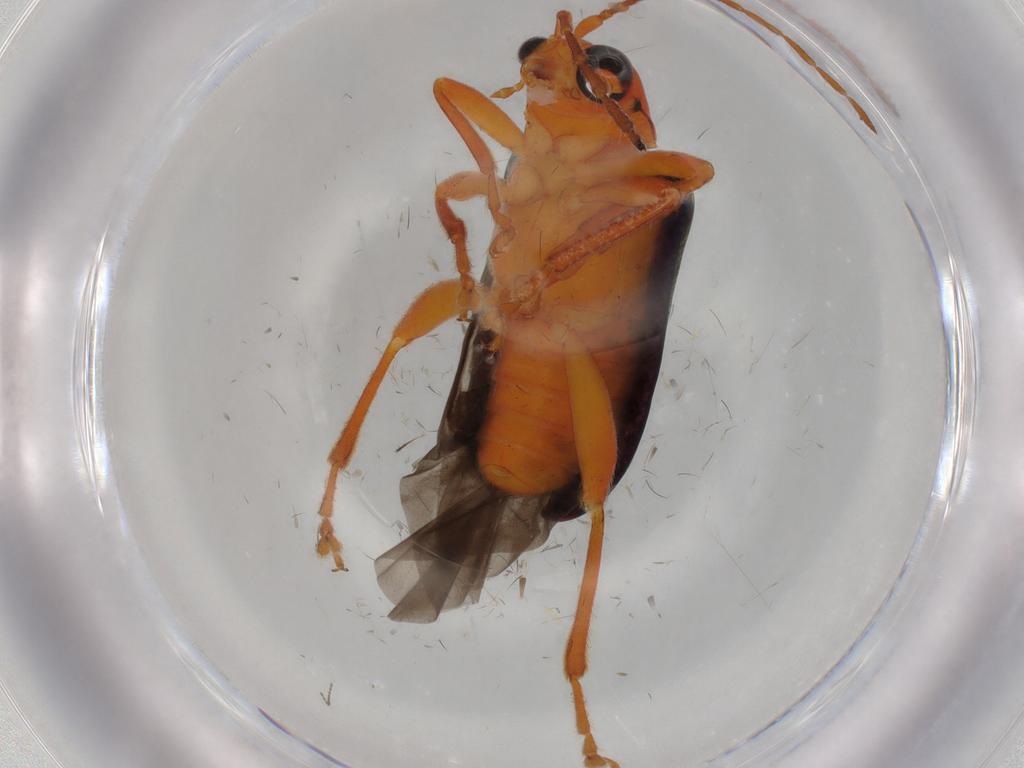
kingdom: Animalia
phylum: Arthropoda
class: Insecta
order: Coleoptera
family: Chrysomelidae
